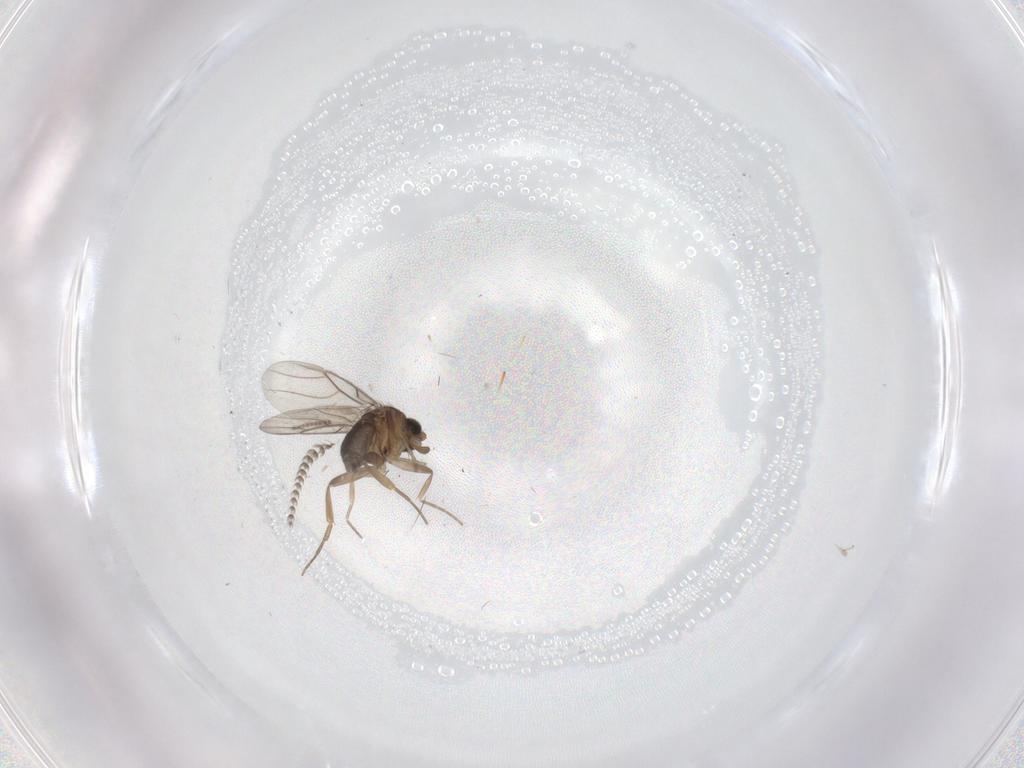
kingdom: Animalia
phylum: Arthropoda
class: Insecta
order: Diptera
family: Phoridae
